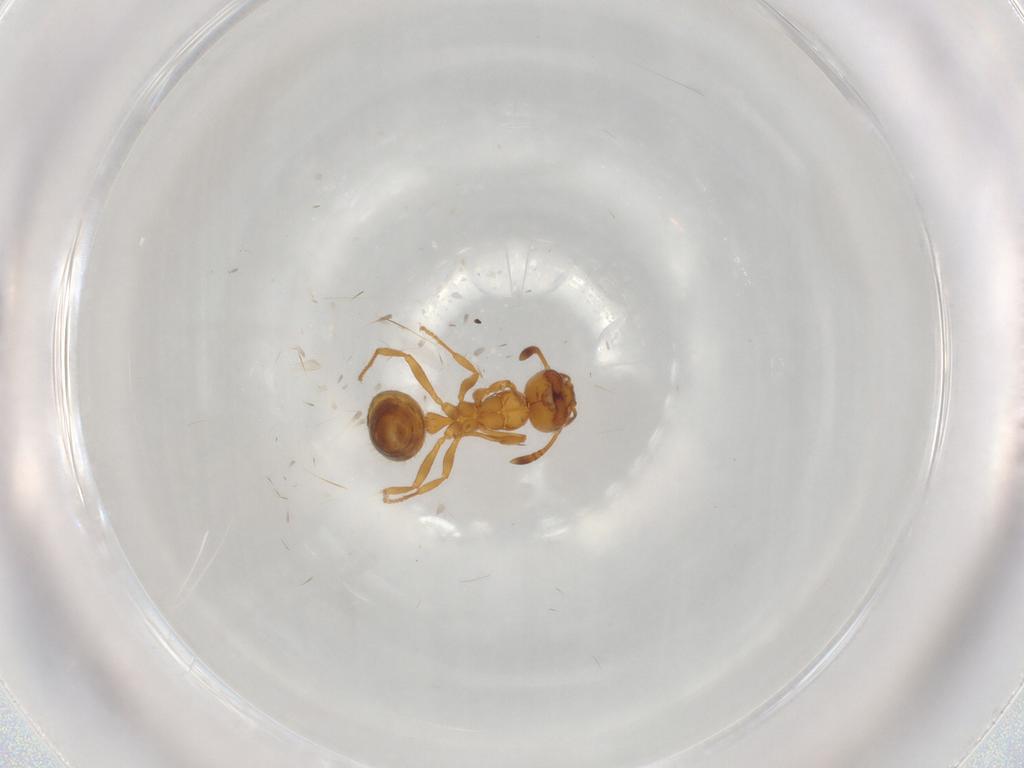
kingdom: Animalia
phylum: Arthropoda
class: Insecta
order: Hymenoptera
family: Formicidae
